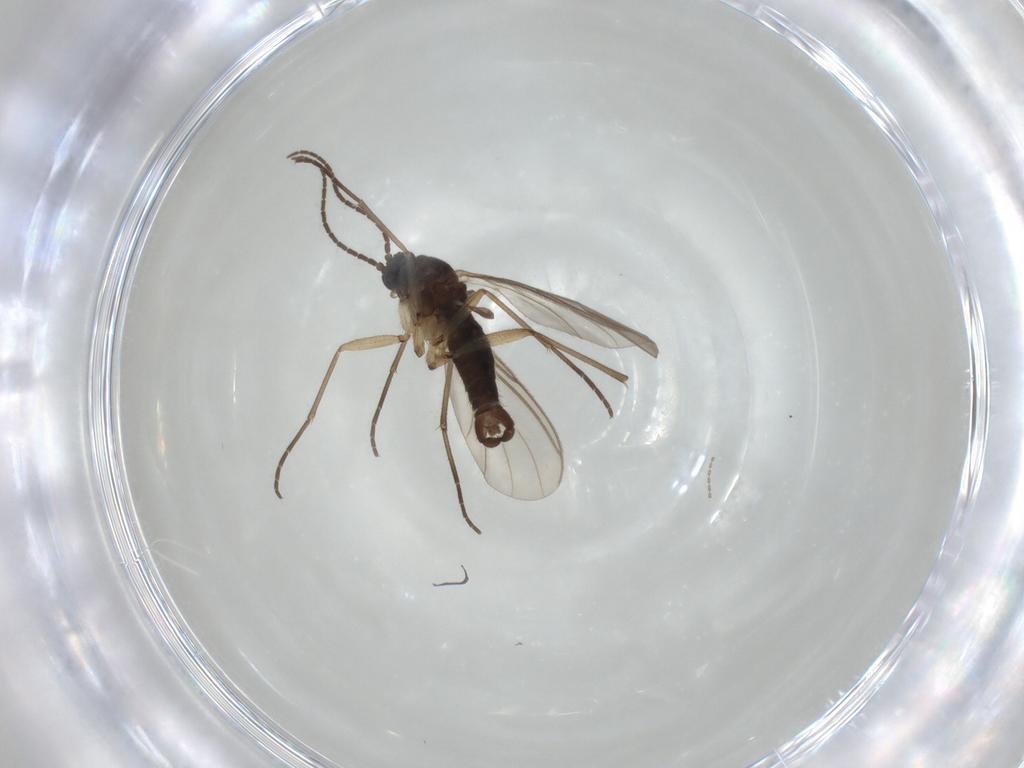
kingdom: Animalia
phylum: Arthropoda
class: Insecta
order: Diptera
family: Sciaridae
